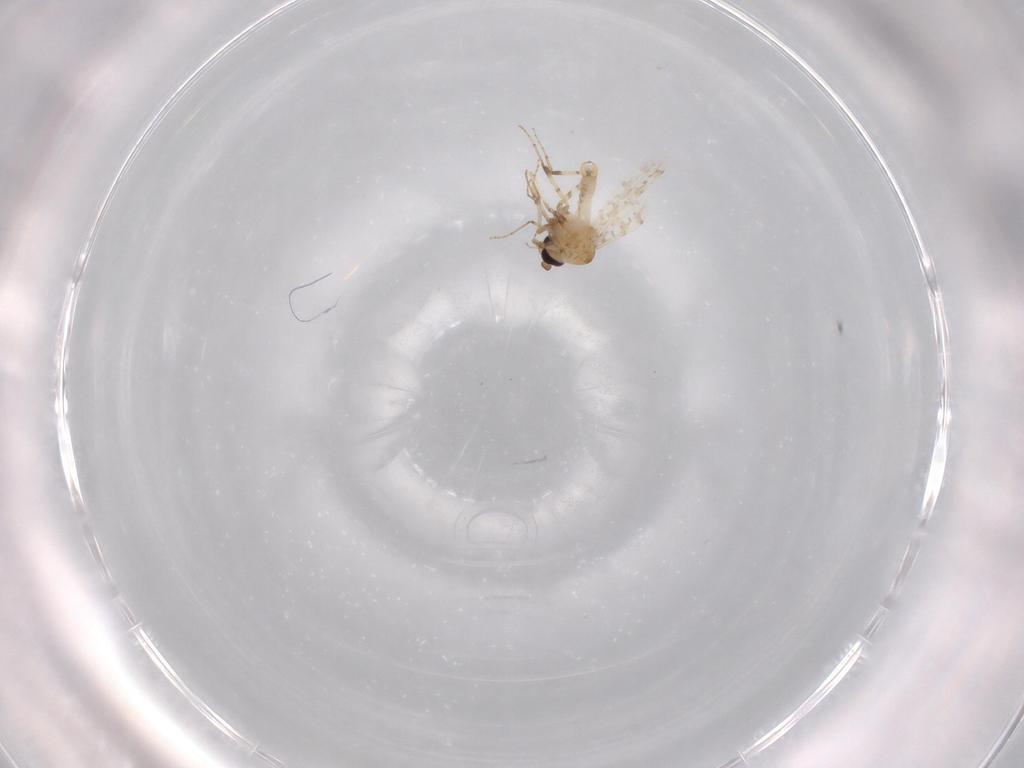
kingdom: Animalia
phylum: Arthropoda
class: Insecta
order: Diptera
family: Ceratopogonidae
